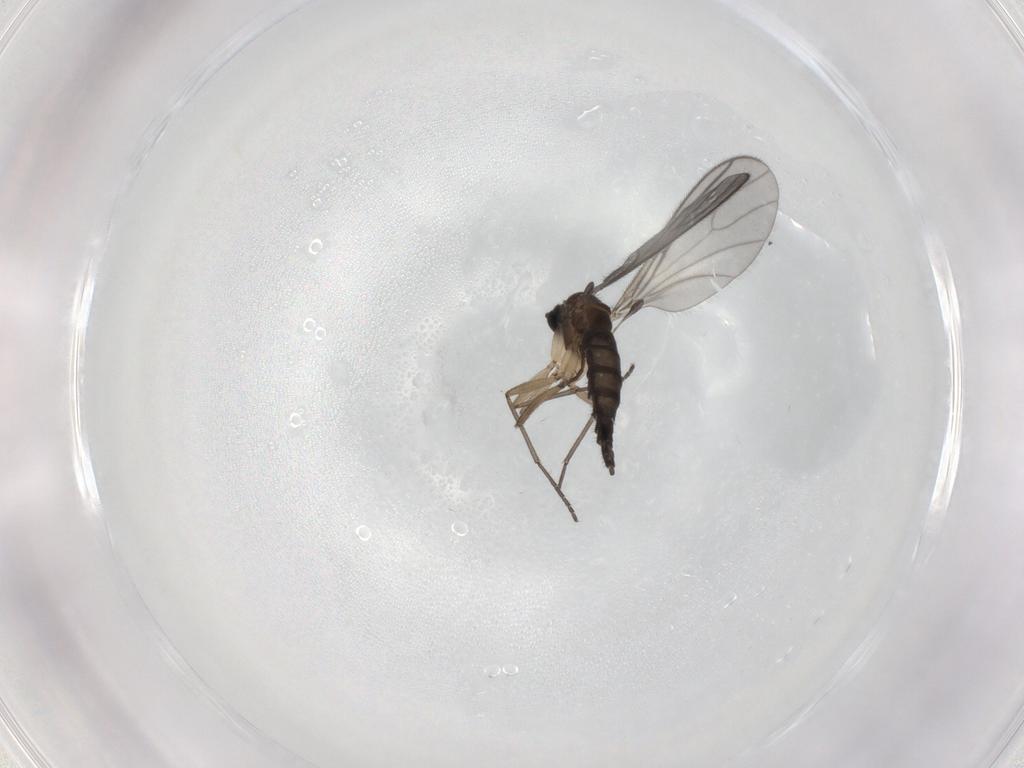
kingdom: Animalia
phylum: Arthropoda
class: Insecta
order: Diptera
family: Sciaridae
